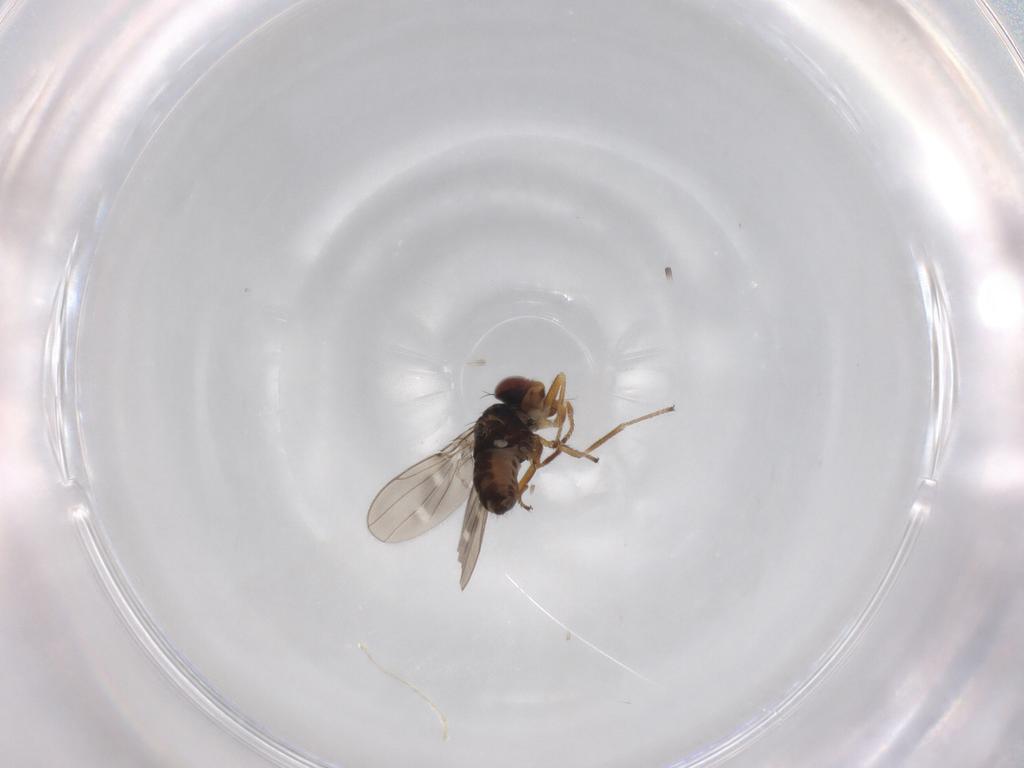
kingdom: Animalia
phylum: Arthropoda
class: Insecta
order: Diptera
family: Ephydridae
